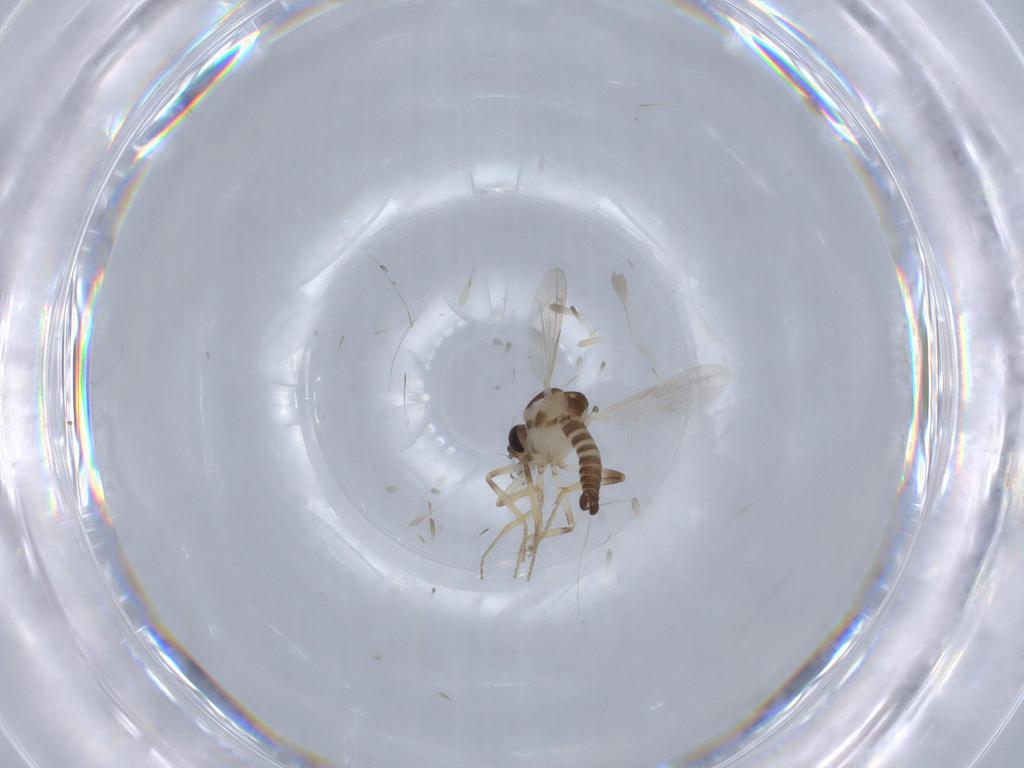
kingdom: Animalia
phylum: Arthropoda
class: Insecta
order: Diptera
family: Ceratopogonidae
